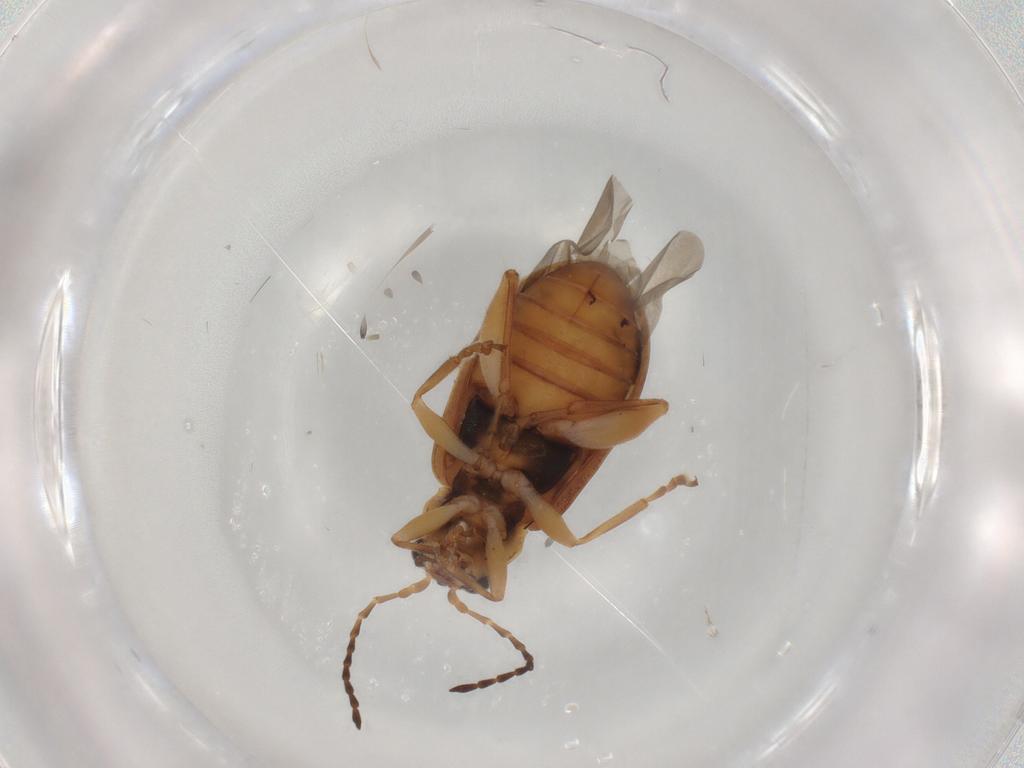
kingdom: Animalia
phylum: Arthropoda
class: Insecta
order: Coleoptera
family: Chrysomelidae
